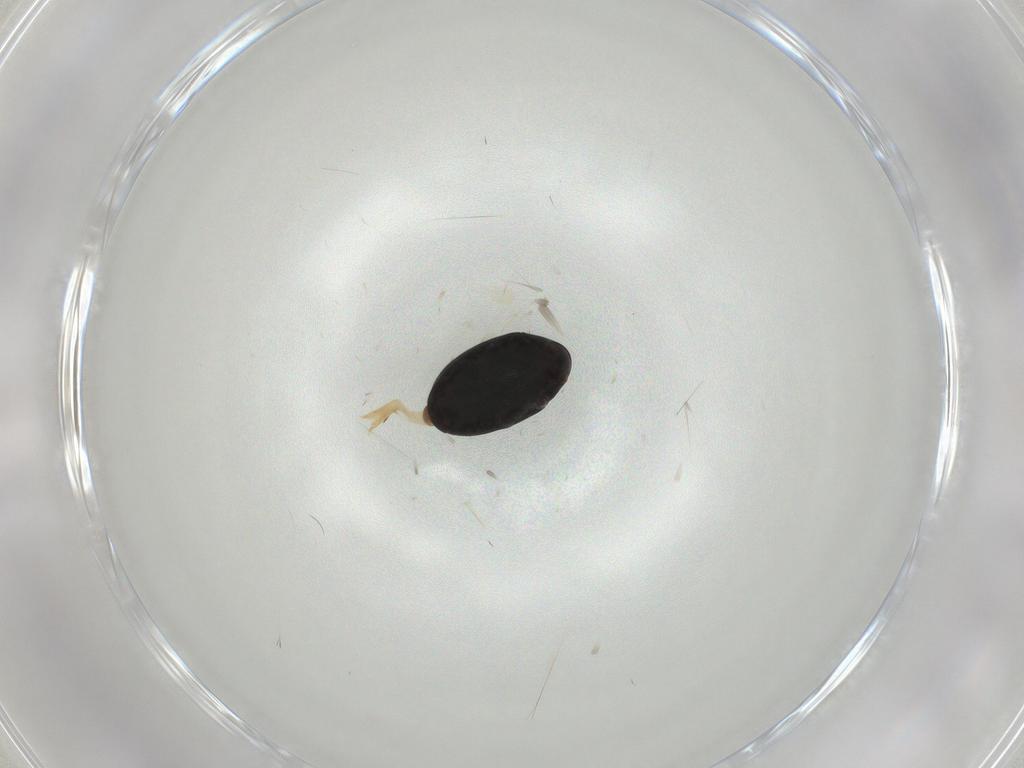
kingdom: Animalia
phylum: Arthropoda
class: Insecta
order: Coleoptera
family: Ptinidae
